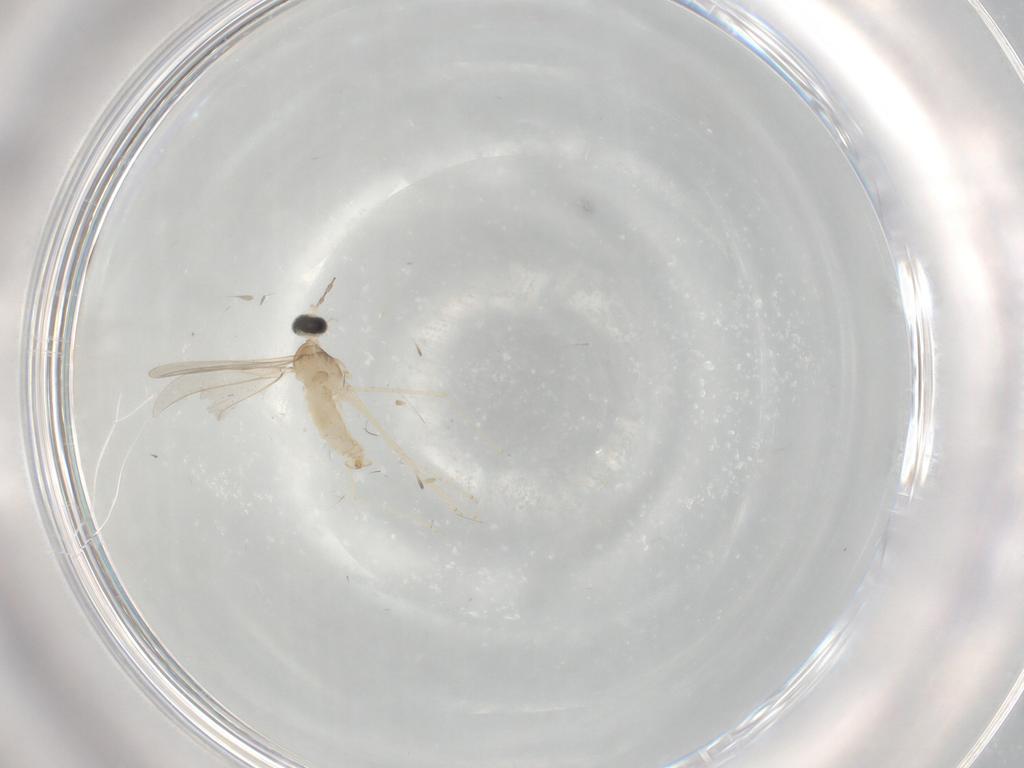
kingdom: Animalia
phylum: Arthropoda
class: Insecta
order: Diptera
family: Cecidomyiidae
